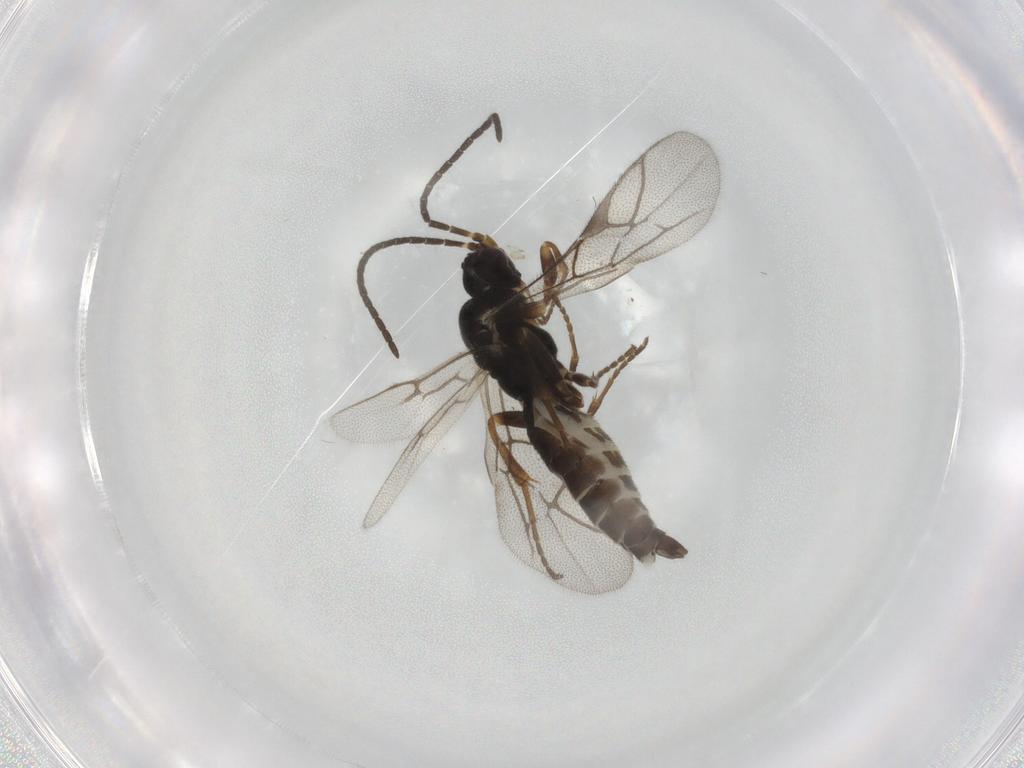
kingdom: Animalia
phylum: Arthropoda
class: Insecta
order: Hymenoptera
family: Ichneumonidae
